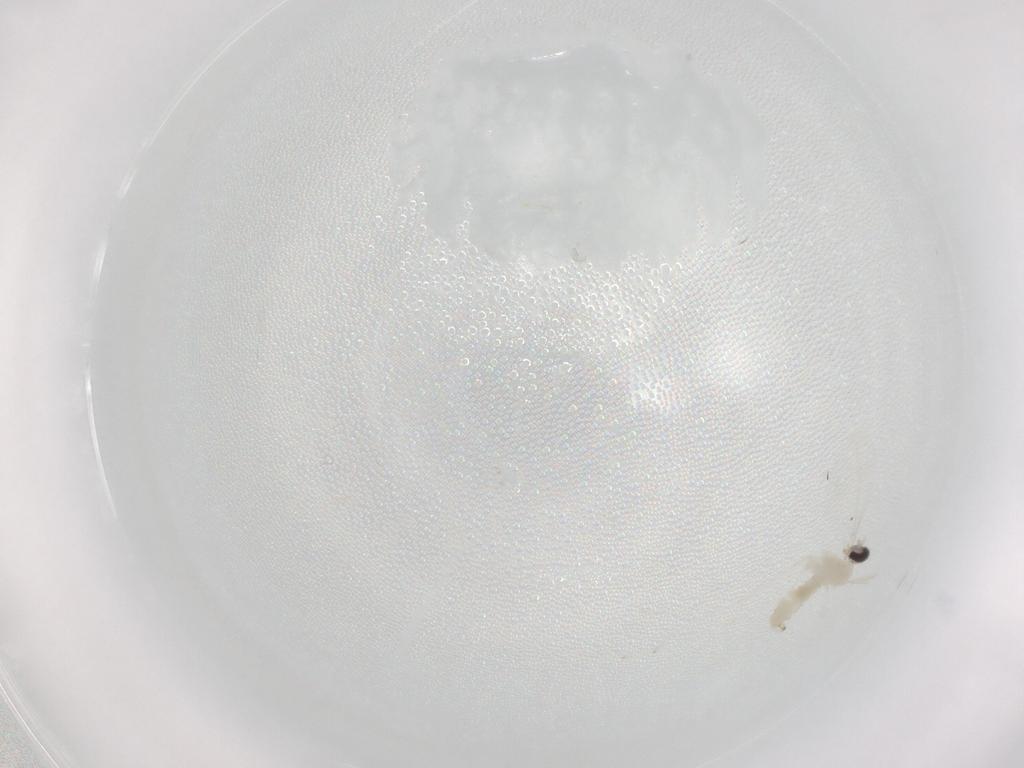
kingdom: Animalia
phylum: Arthropoda
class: Insecta
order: Diptera
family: Cecidomyiidae
